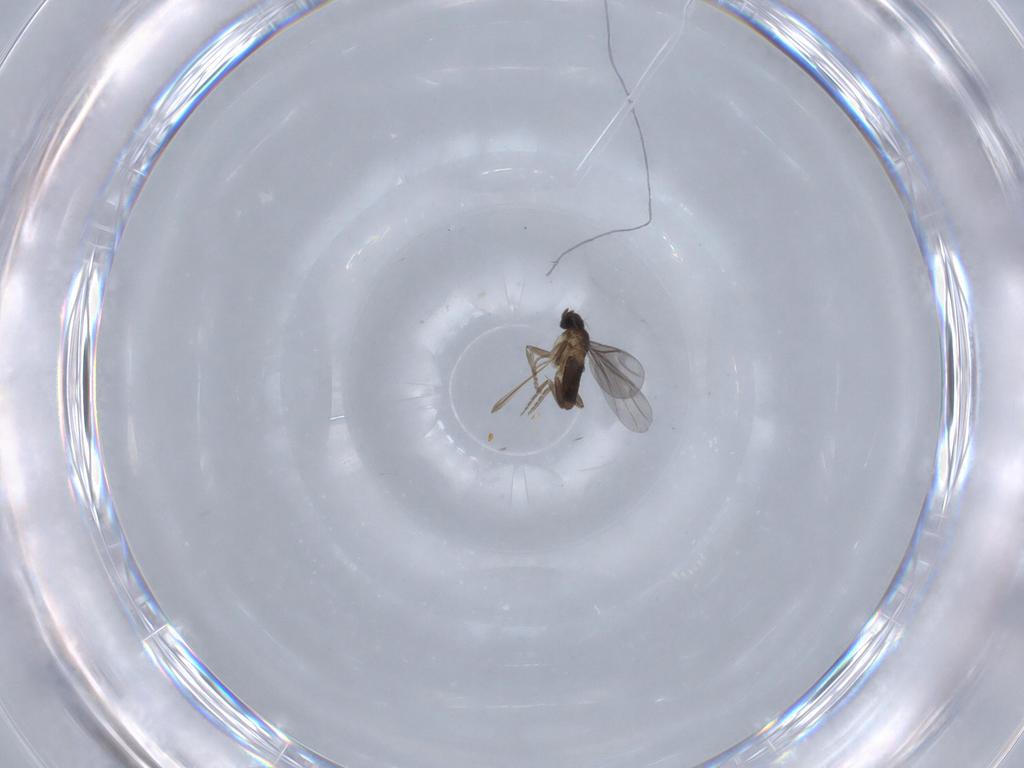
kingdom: Animalia
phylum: Arthropoda
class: Insecta
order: Diptera
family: Dolichopodidae
